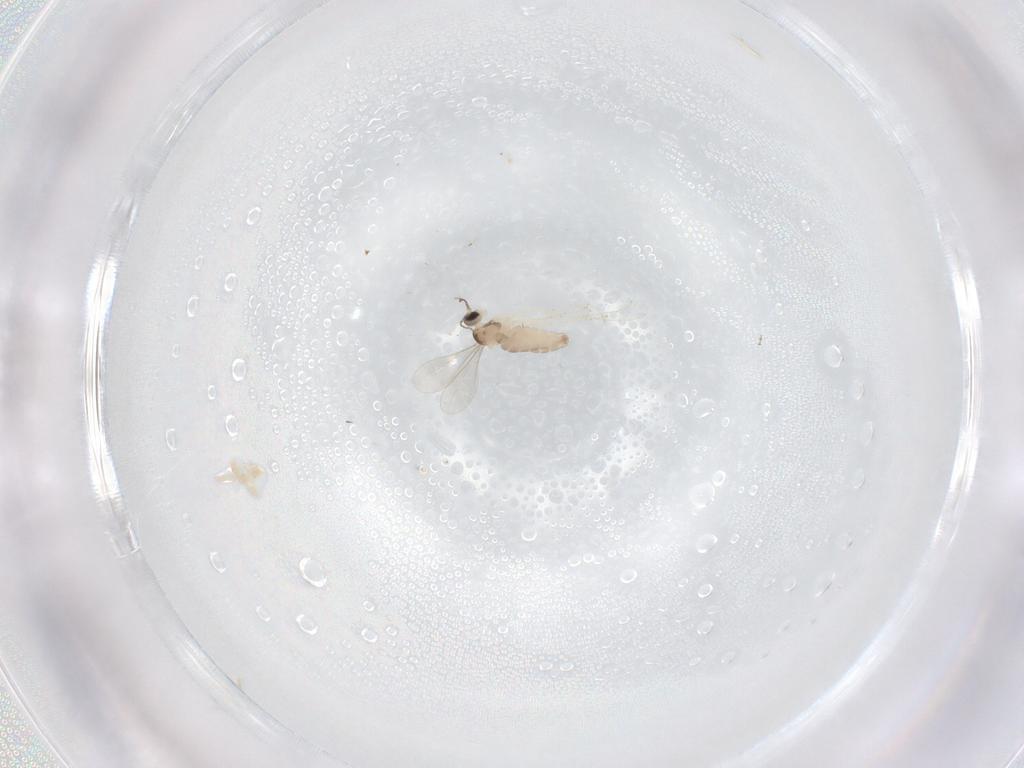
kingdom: Animalia
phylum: Arthropoda
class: Insecta
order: Diptera
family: Cecidomyiidae
